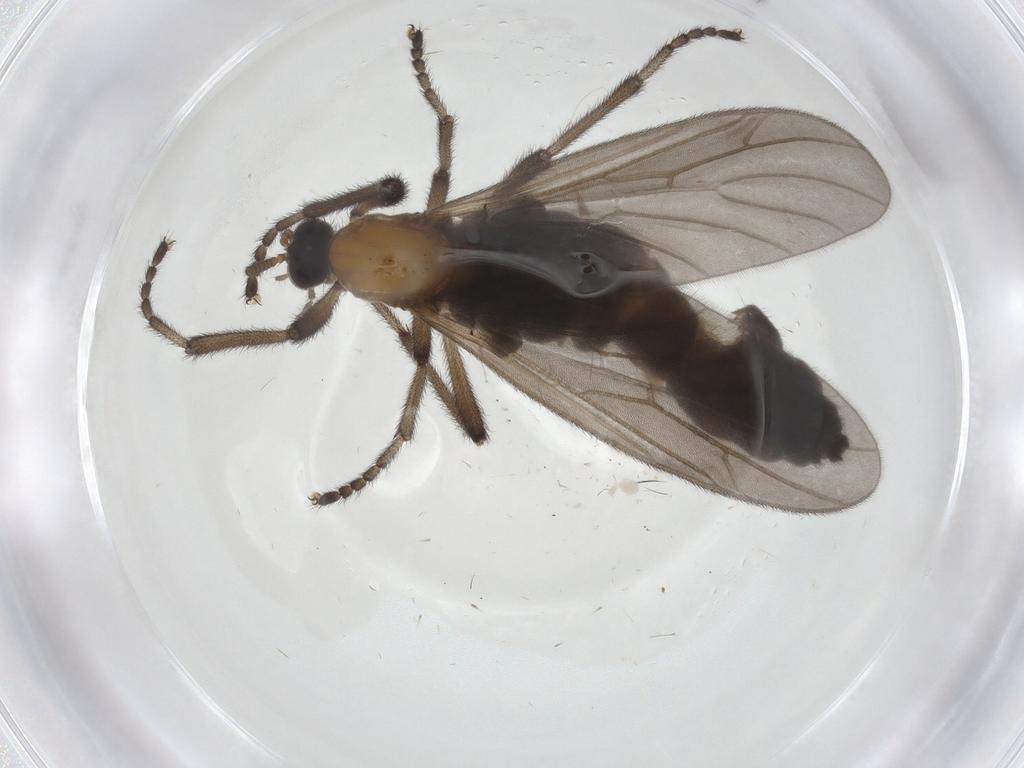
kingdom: Animalia
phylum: Arthropoda
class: Insecta
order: Diptera
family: Bibionidae
